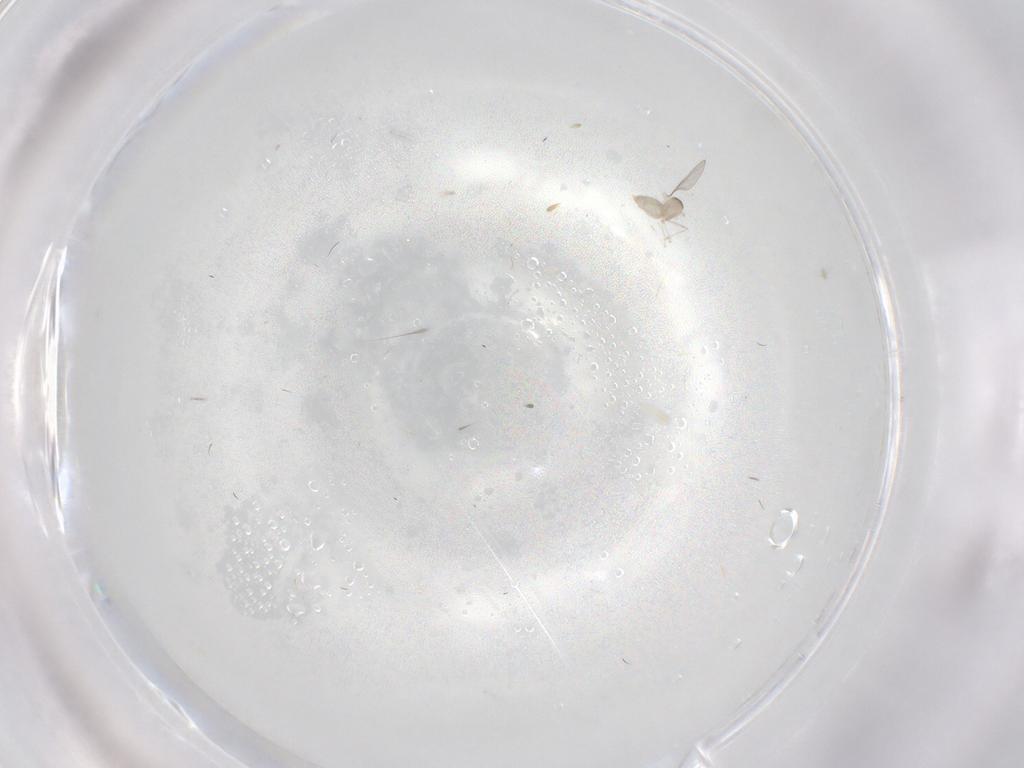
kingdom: Animalia
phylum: Arthropoda
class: Insecta
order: Diptera
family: Cecidomyiidae
